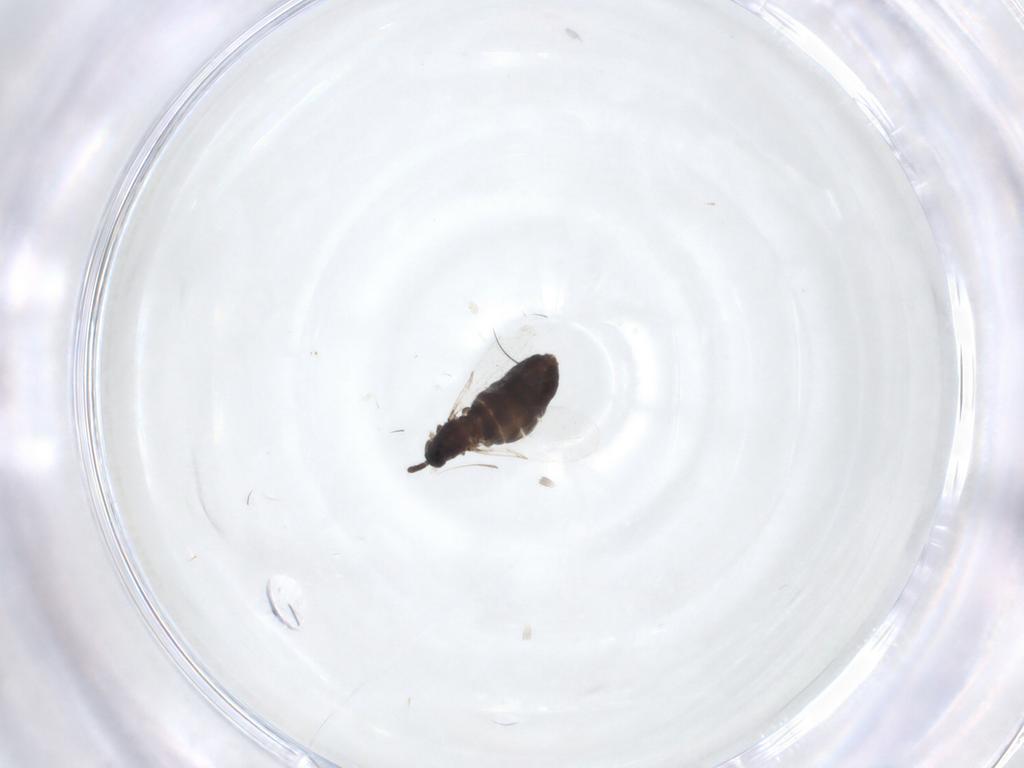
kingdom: Animalia
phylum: Arthropoda
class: Insecta
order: Diptera
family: Scatopsidae
